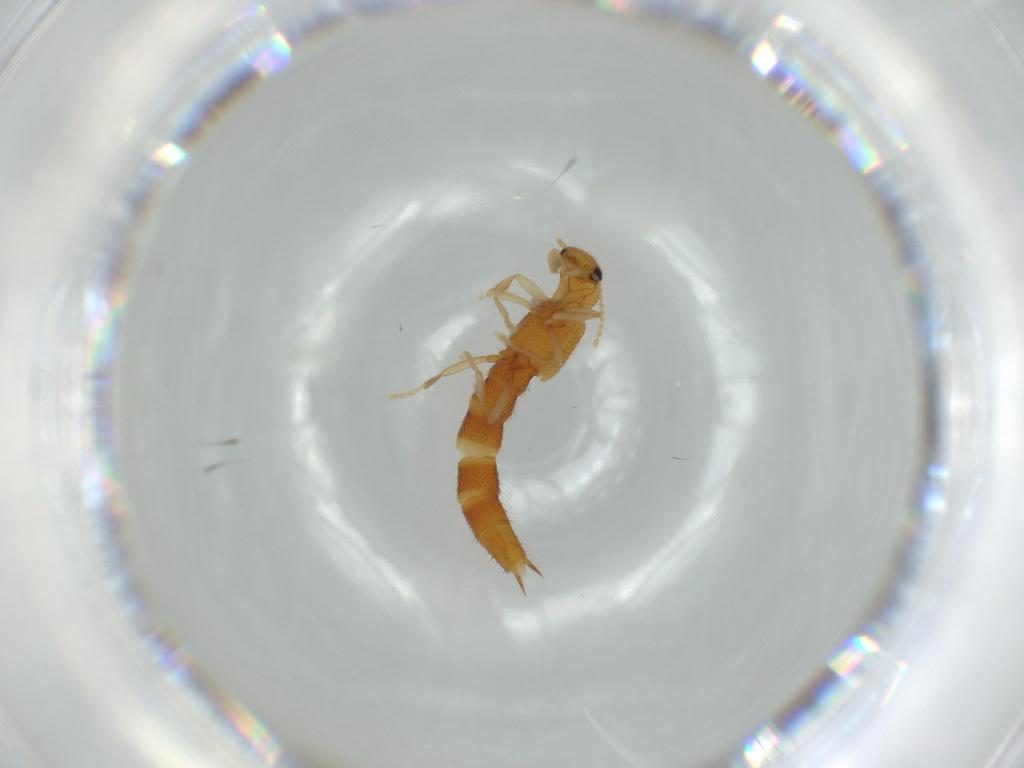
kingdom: Animalia
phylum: Arthropoda
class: Insecta
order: Coleoptera
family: Staphylinidae
